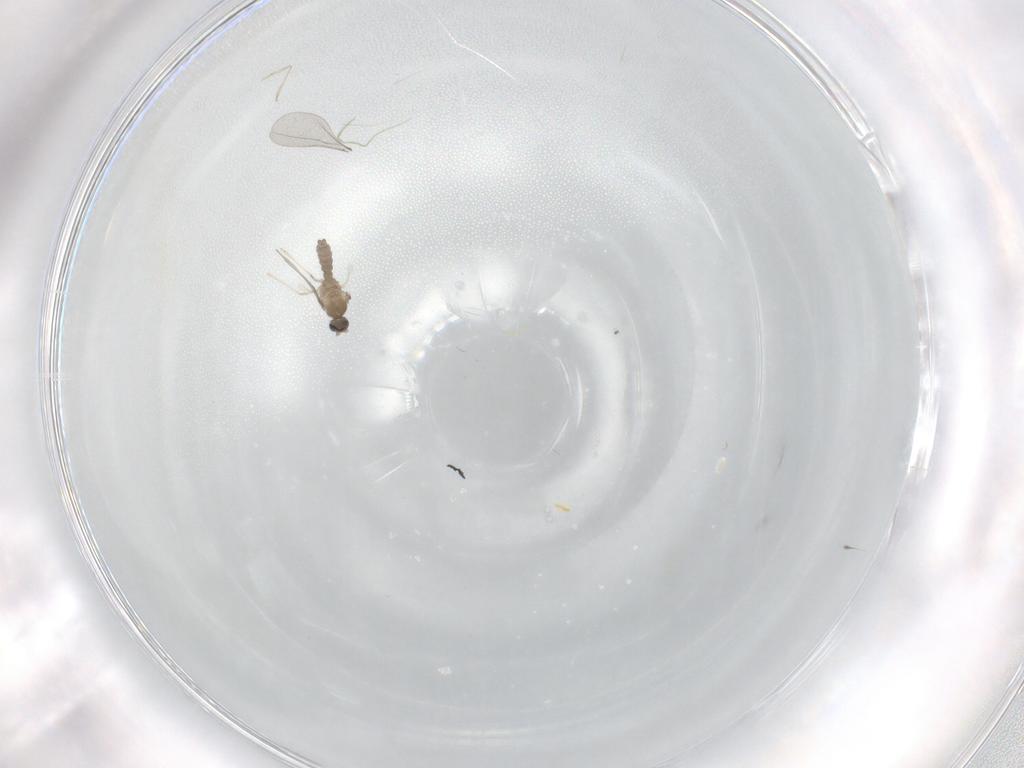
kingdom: Animalia
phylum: Arthropoda
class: Insecta
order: Diptera
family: Cecidomyiidae
